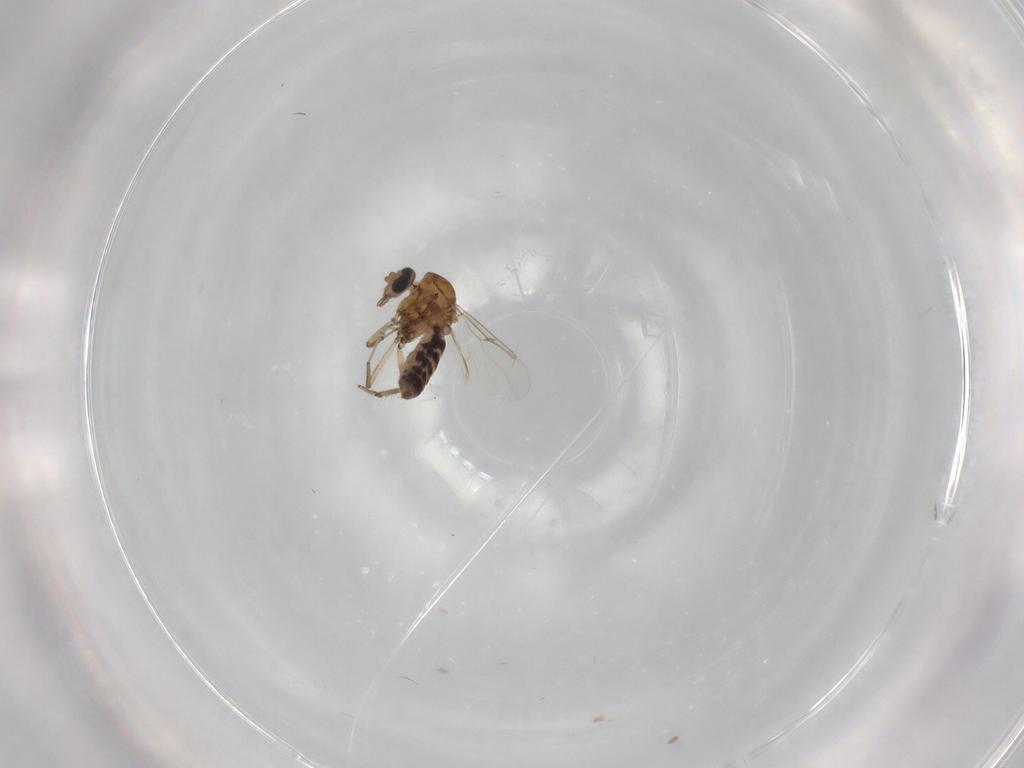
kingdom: Animalia
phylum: Arthropoda
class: Insecta
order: Diptera
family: Ceratopogonidae
